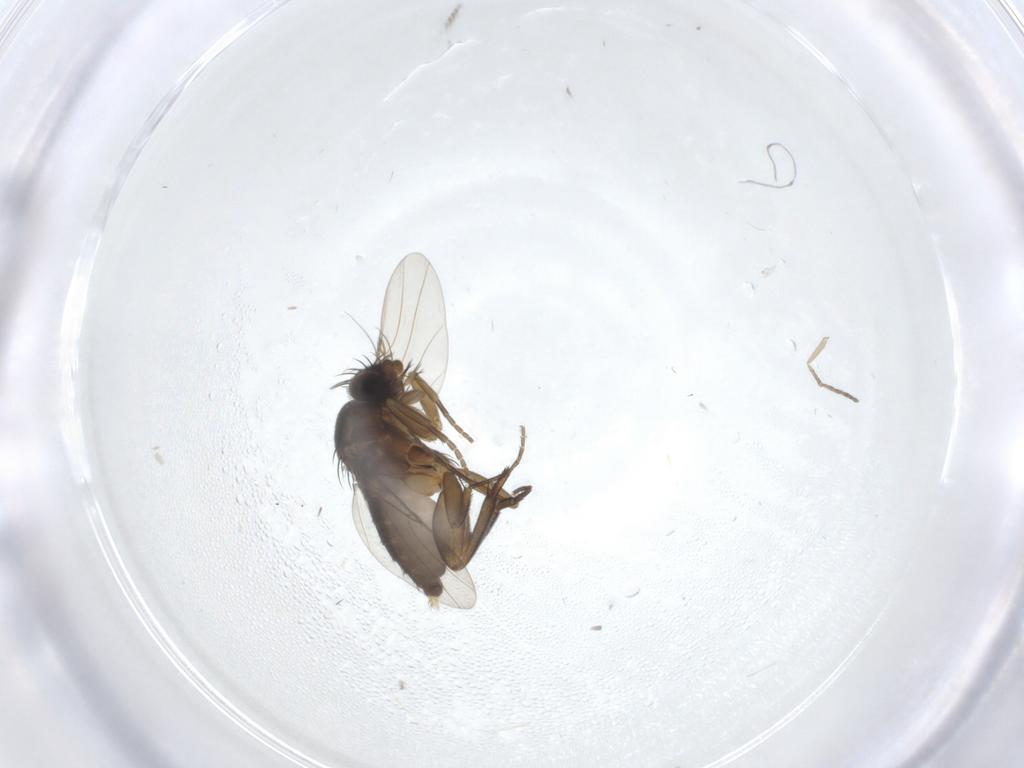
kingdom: Animalia
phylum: Arthropoda
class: Insecta
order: Diptera
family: Phoridae
